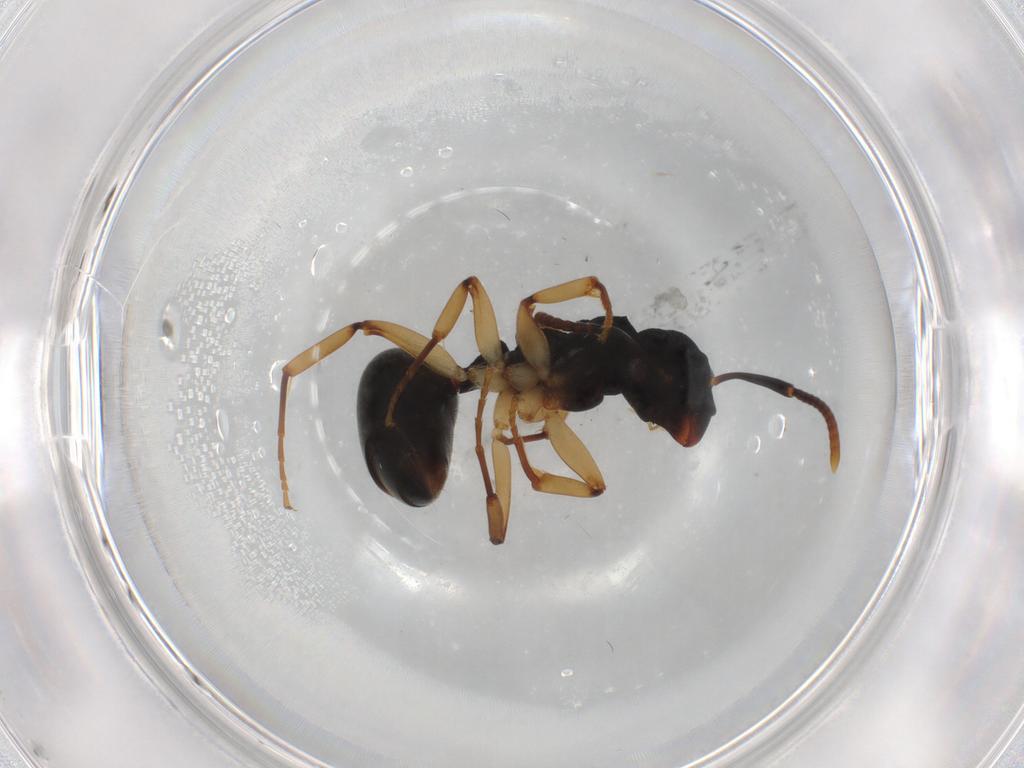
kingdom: Animalia
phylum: Arthropoda
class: Insecta
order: Hymenoptera
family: Formicidae
